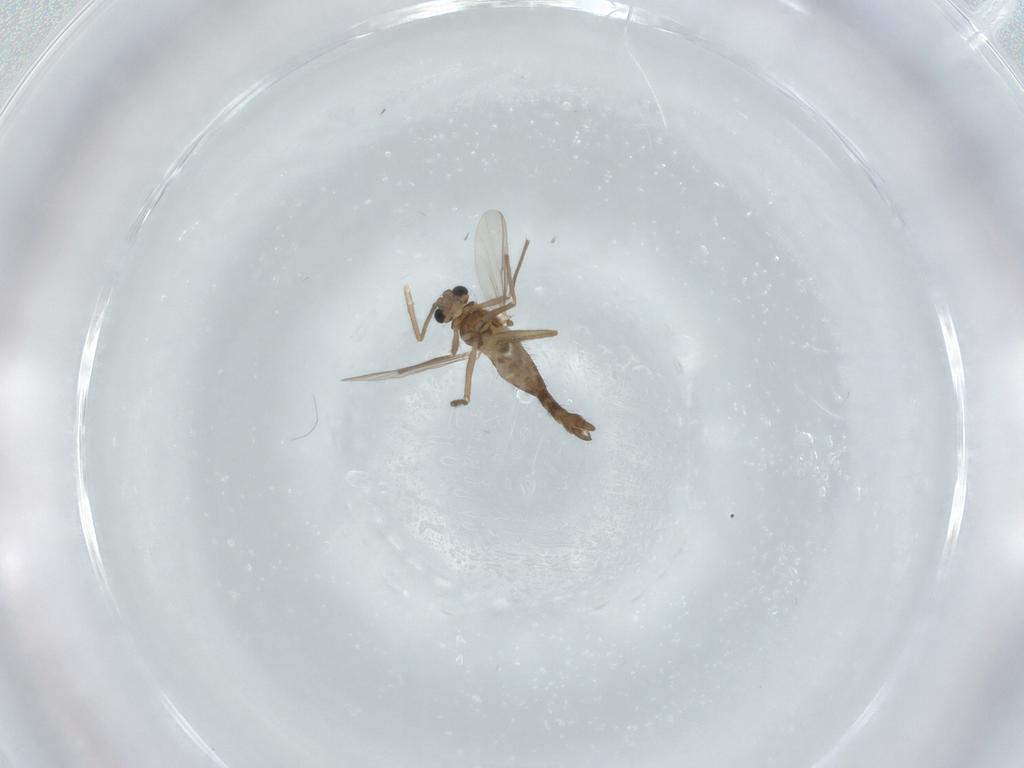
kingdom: Animalia
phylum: Arthropoda
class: Insecta
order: Diptera
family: Chironomidae
